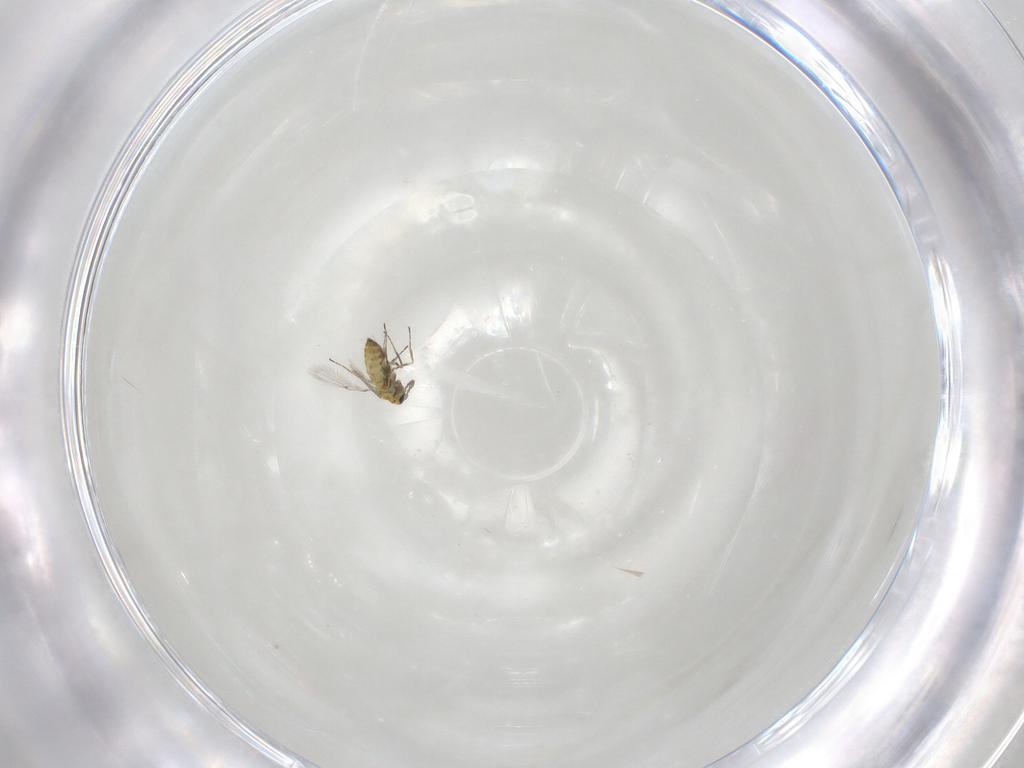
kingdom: Animalia
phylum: Arthropoda
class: Insecta
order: Hymenoptera
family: Trichogrammatidae
